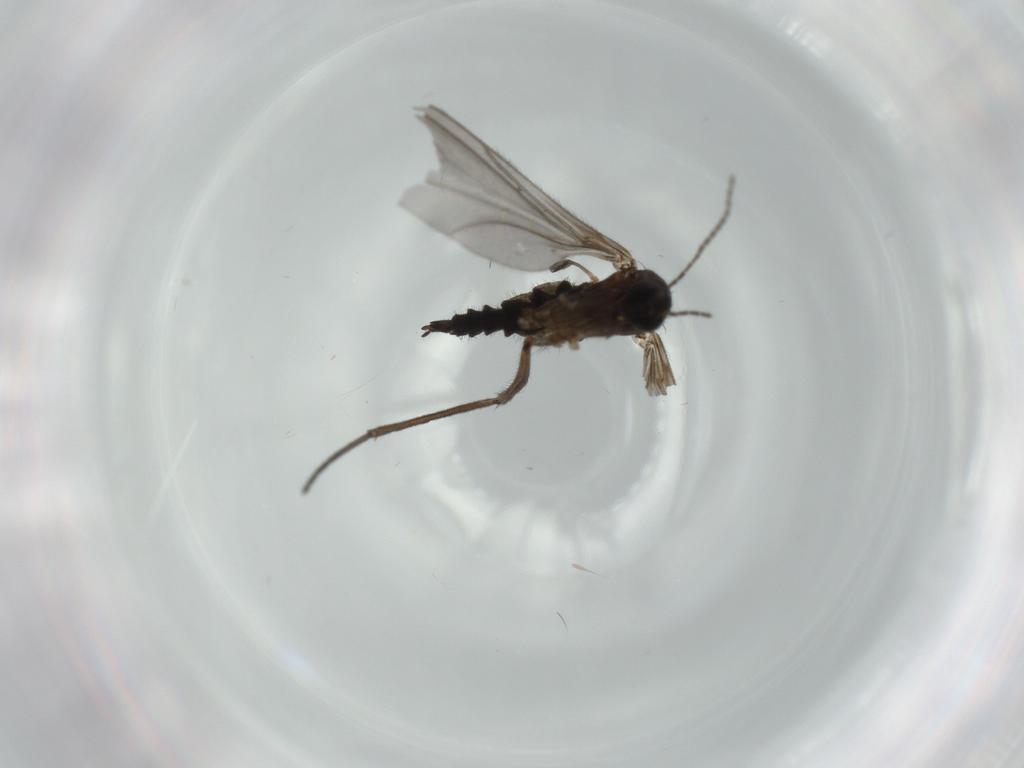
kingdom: Animalia
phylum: Arthropoda
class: Insecta
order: Diptera
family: Sciaridae
